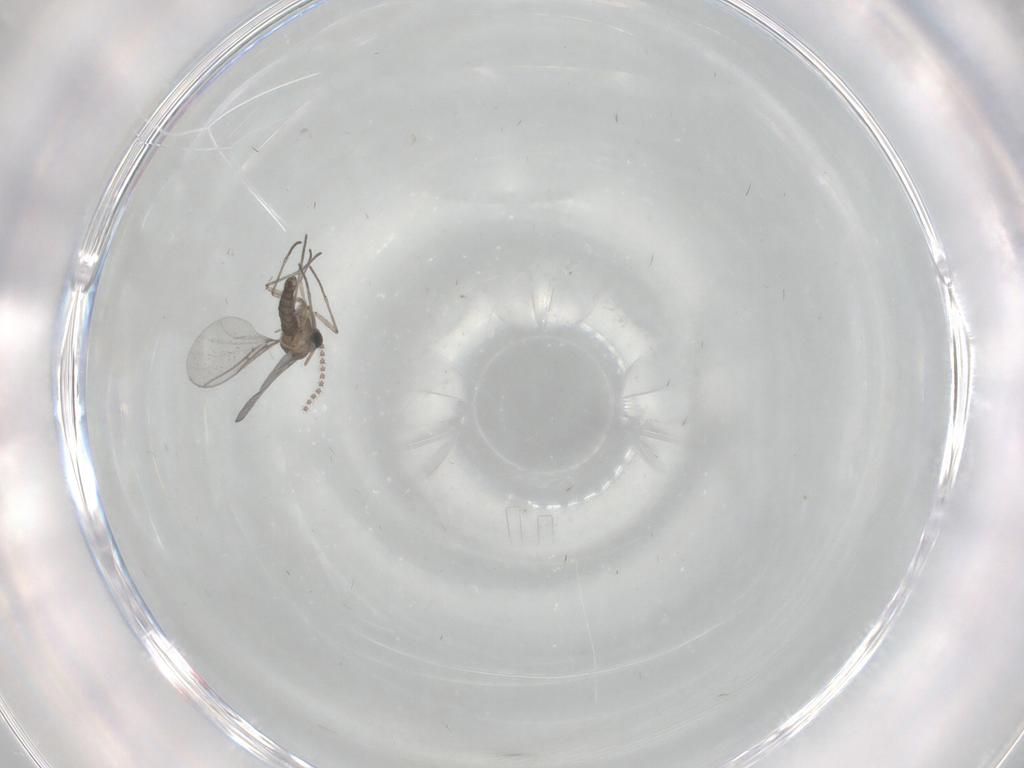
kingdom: Animalia
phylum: Arthropoda
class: Insecta
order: Diptera
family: Cecidomyiidae
